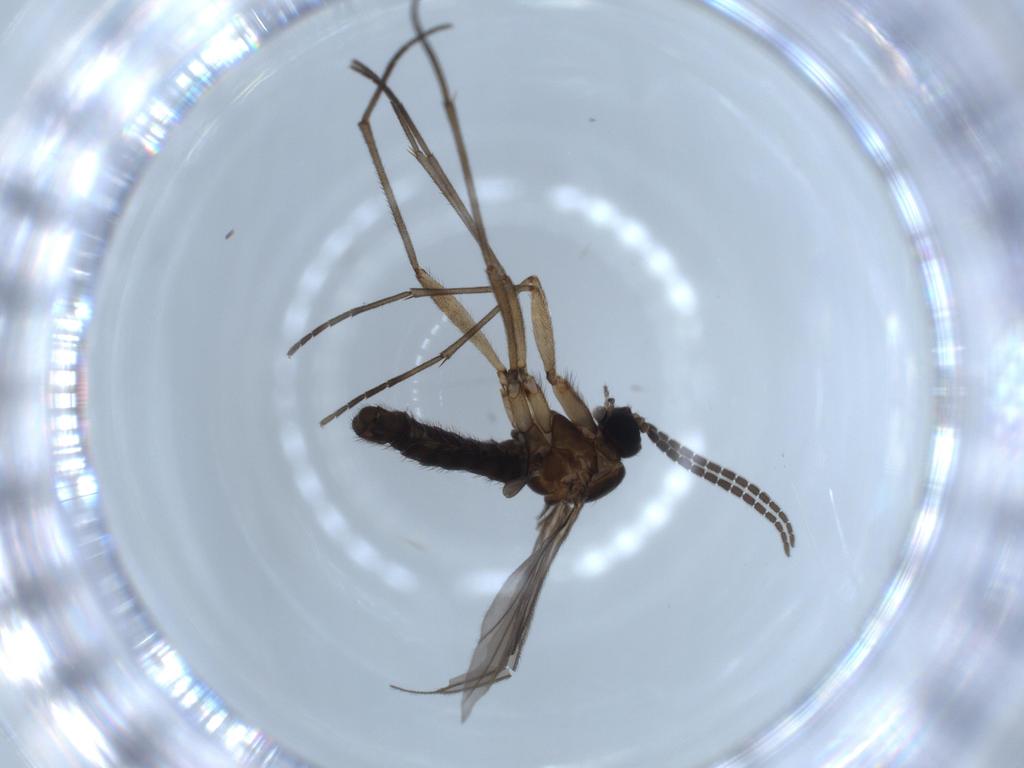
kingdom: Animalia
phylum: Arthropoda
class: Insecta
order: Diptera
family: Sciaridae
